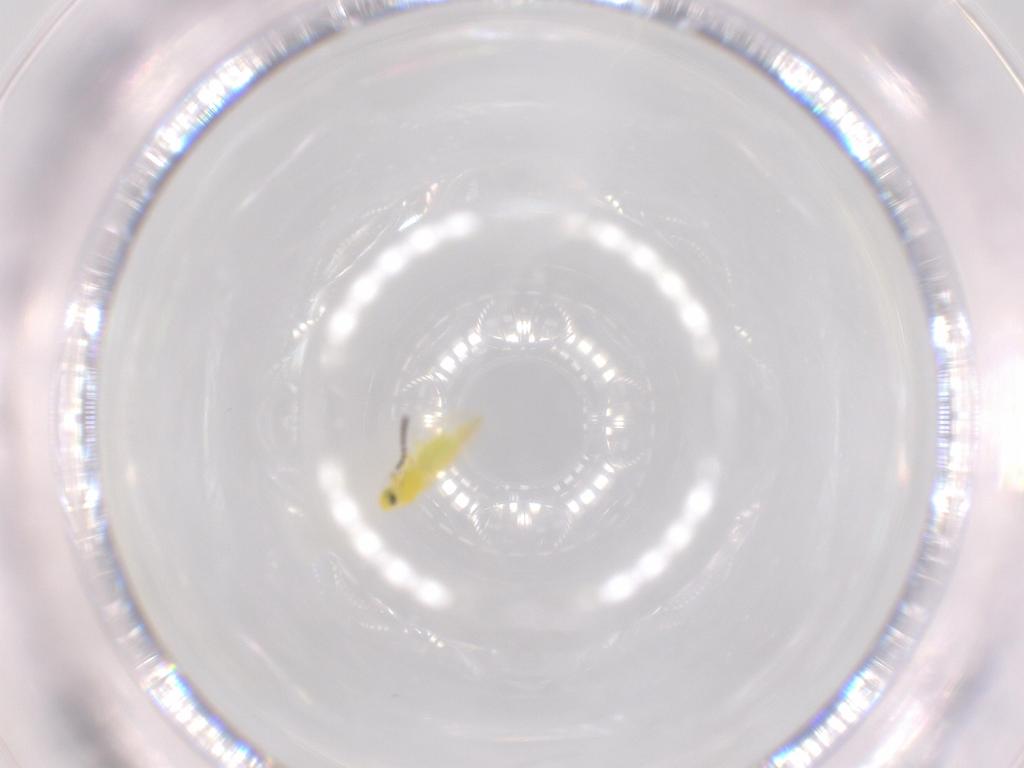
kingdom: Animalia
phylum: Arthropoda
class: Insecta
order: Diptera
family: Cecidomyiidae
